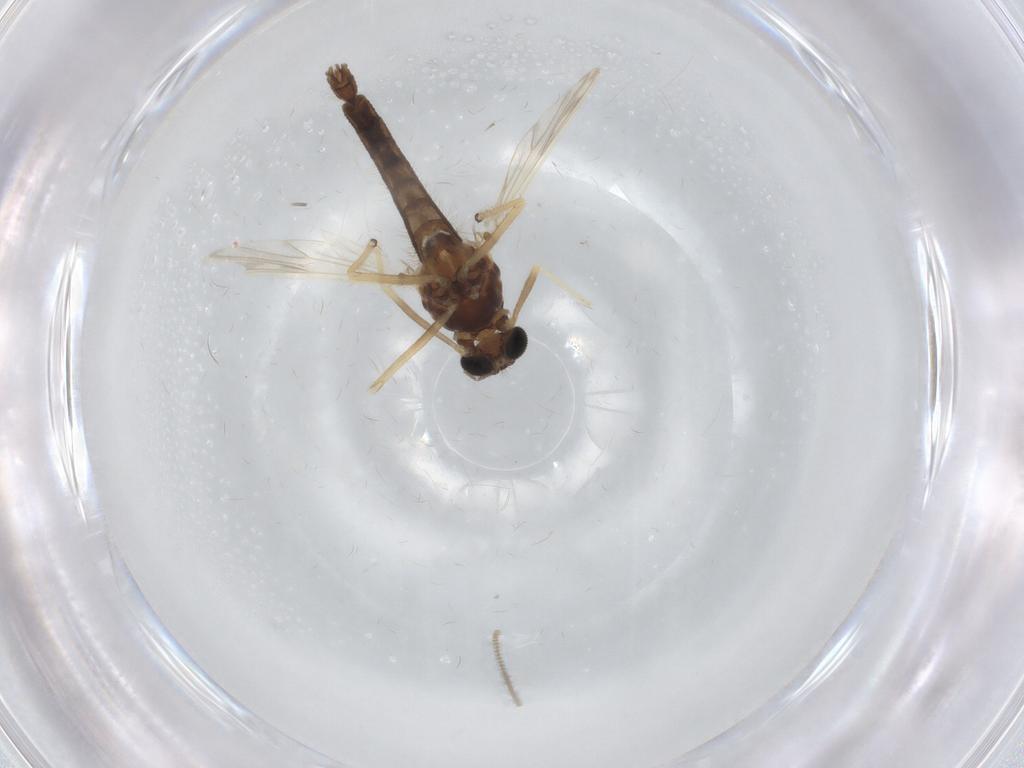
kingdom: Animalia
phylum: Arthropoda
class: Insecta
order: Diptera
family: Chironomidae
